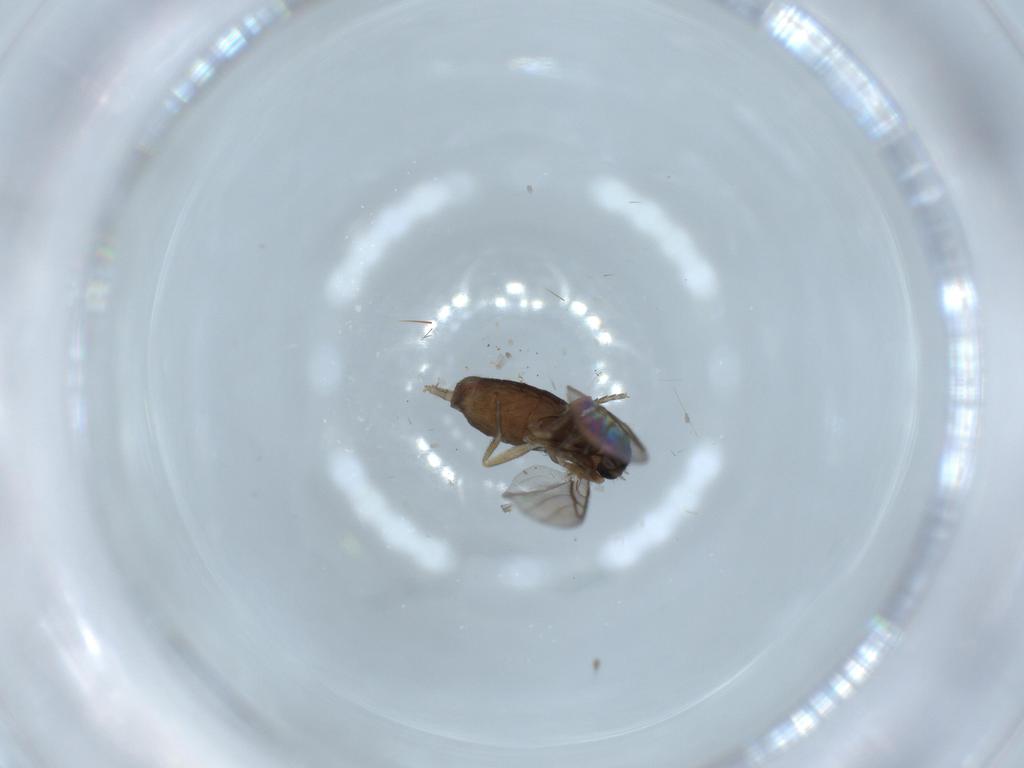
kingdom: Animalia
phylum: Arthropoda
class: Insecta
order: Diptera
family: Phoridae
